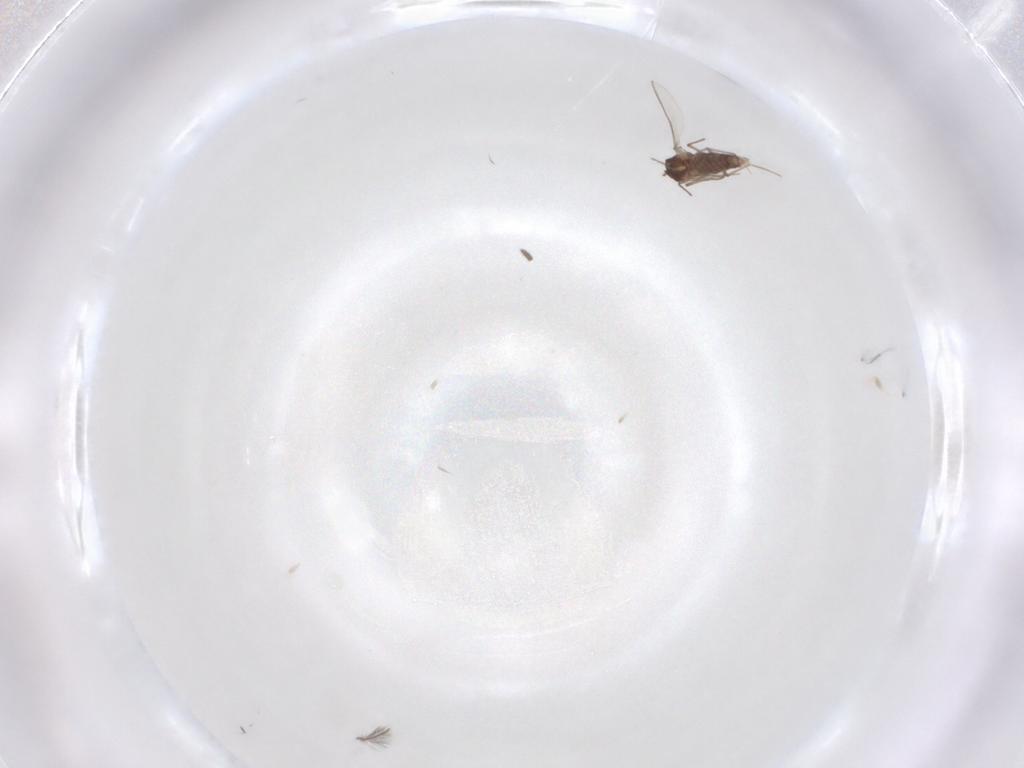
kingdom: Animalia
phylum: Arthropoda
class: Insecta
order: Diptera
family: Chironomidae
